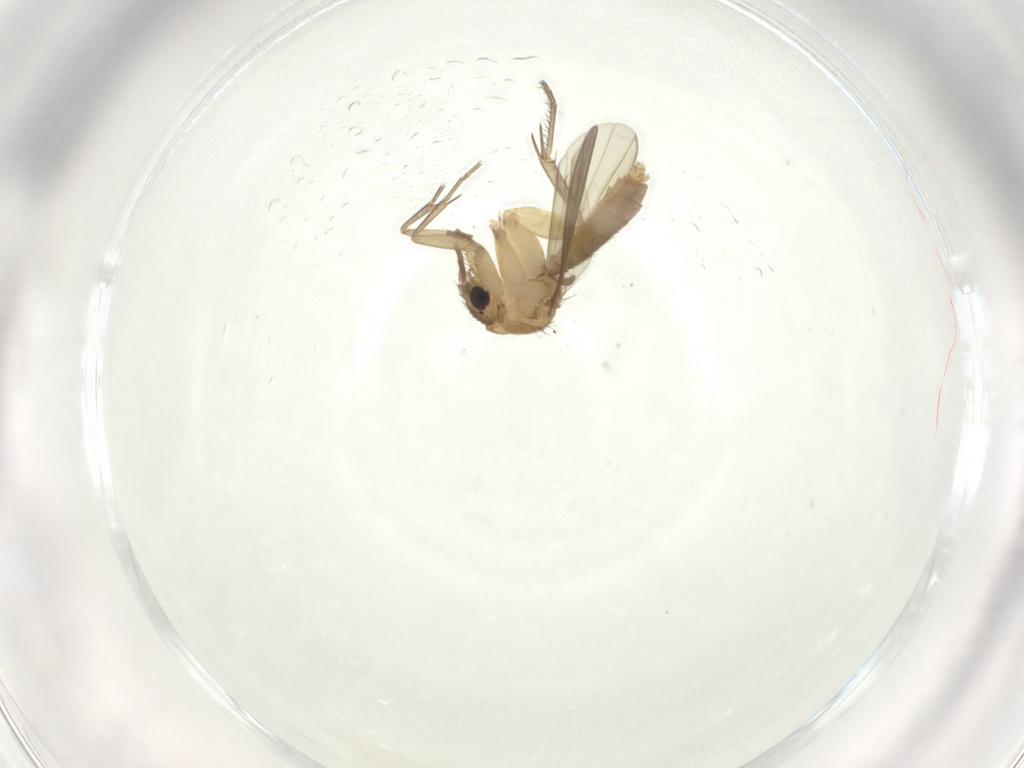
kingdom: Animalia
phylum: Arthropoda
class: Insecta
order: Diptera
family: Mycetophilidae
